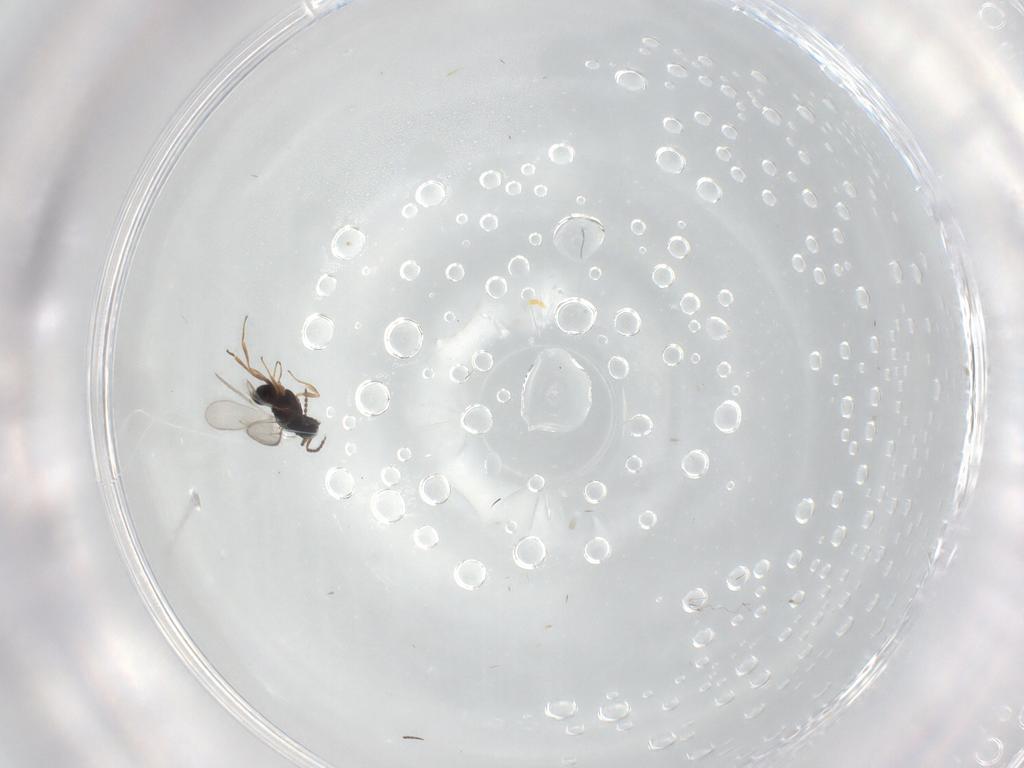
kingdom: Animalia
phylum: Arthropoda
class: Insecta
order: Hymenoptera
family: Scelionidae
